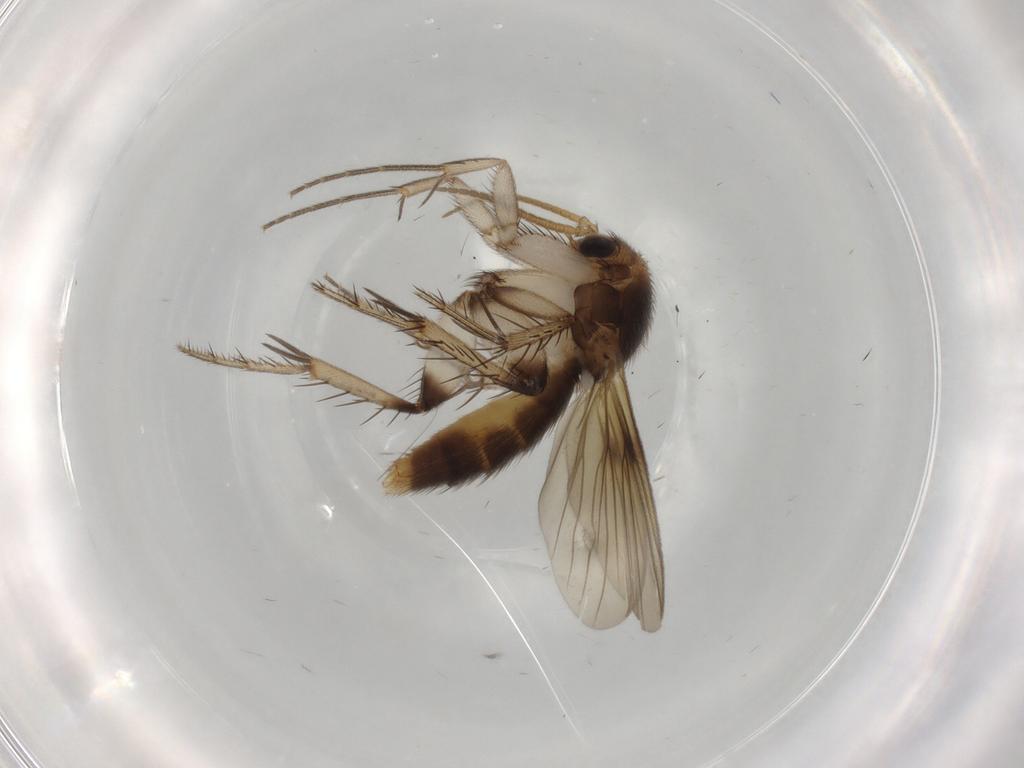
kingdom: Animalia
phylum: Arthropoda
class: Insecta
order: Diptera
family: Mycetophilidae
